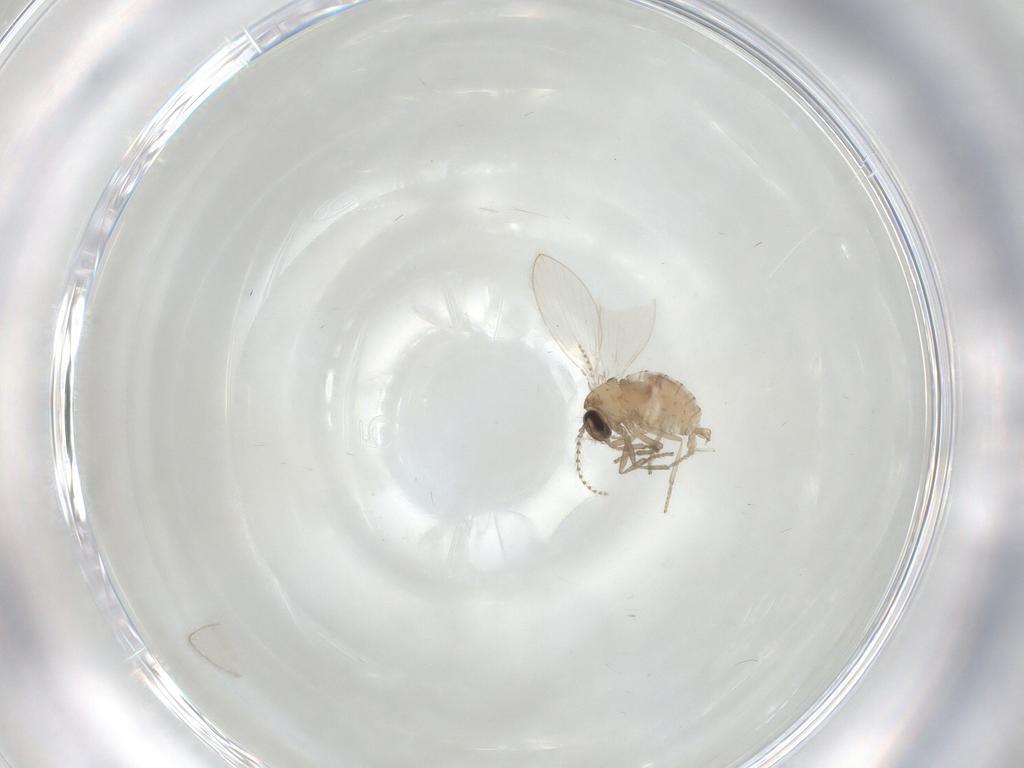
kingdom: Animalia
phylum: Arthropoda
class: Insecta
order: Diptera
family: Psychodidae
